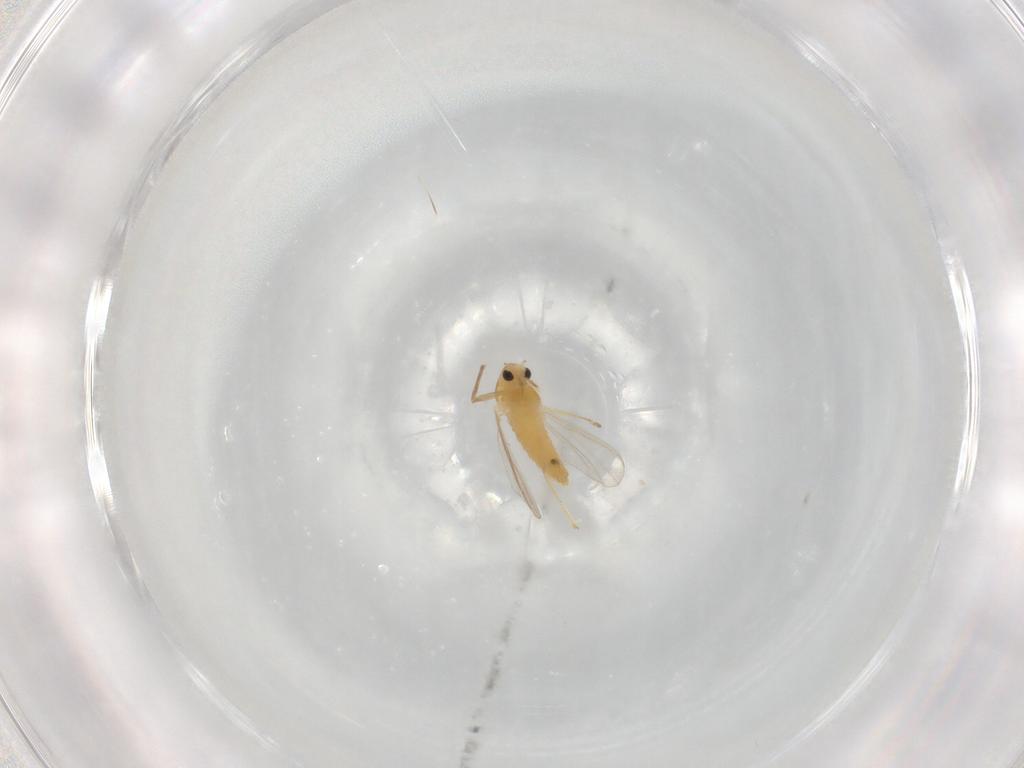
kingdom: Animalia
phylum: Arthropoda
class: Insecta
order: Diptera
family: Chironomidae
